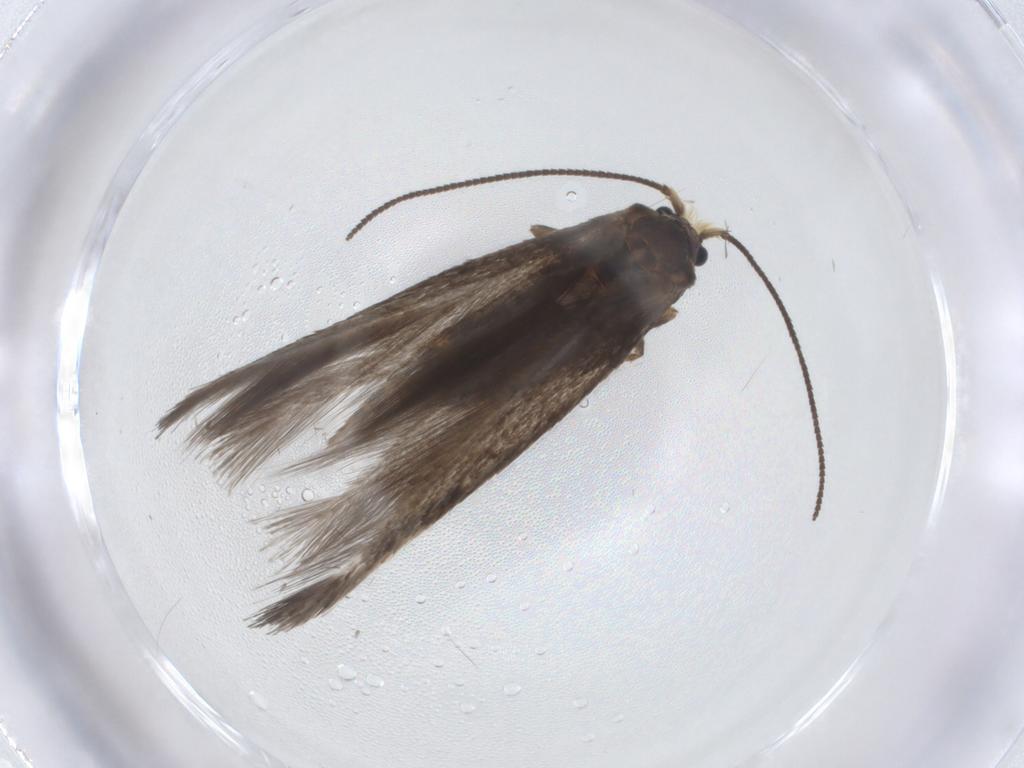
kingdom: Animalia
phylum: Arthropoda
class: Insecta
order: Lepidoptera
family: Nepticulidae
